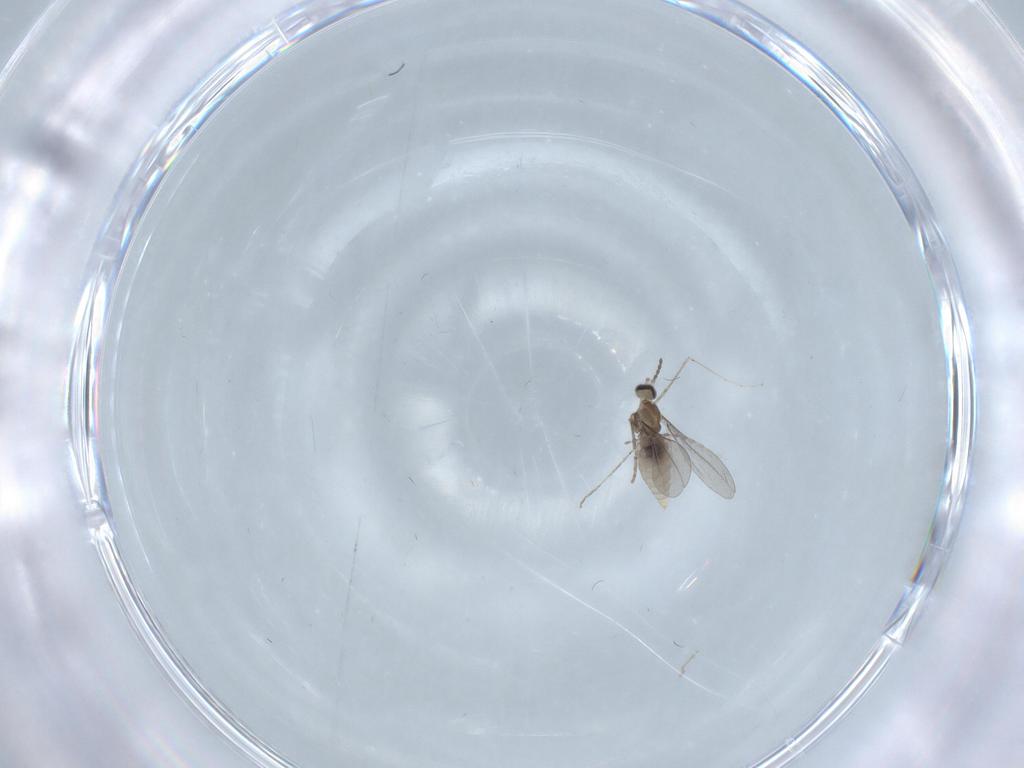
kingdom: Animalia
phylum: Arthropoda
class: Insecta
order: Diptera
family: Cecidomyiidae
